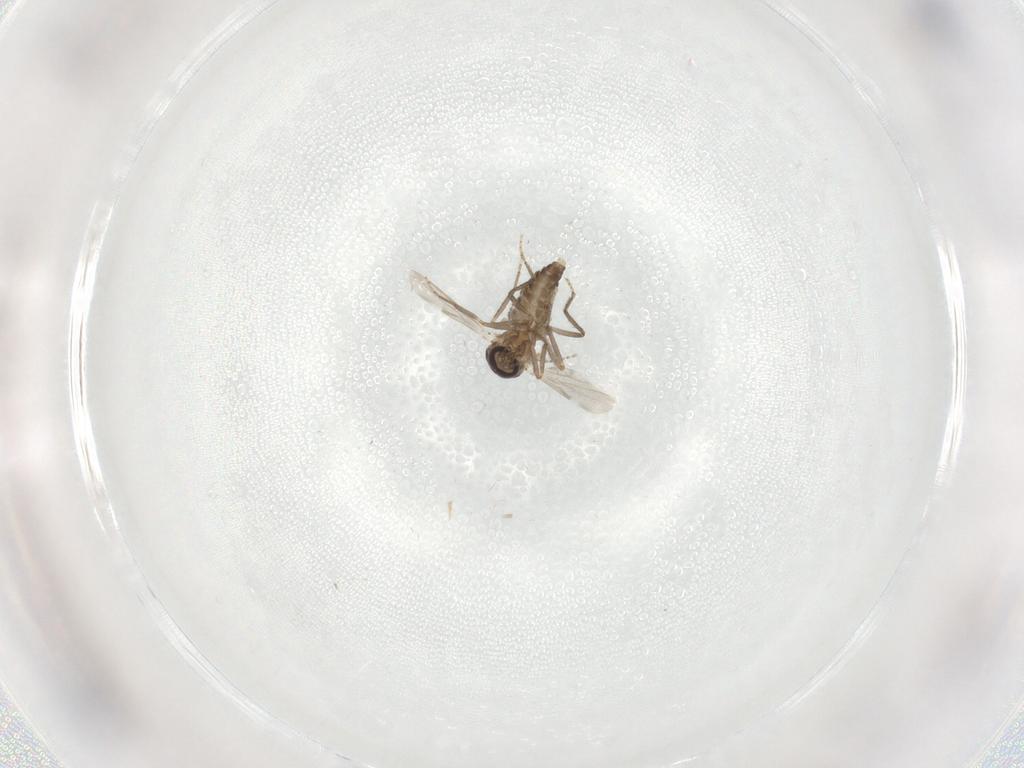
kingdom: Animalia
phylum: Arthropoda
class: Insecta
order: Diptera
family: Ceratopogonidae
